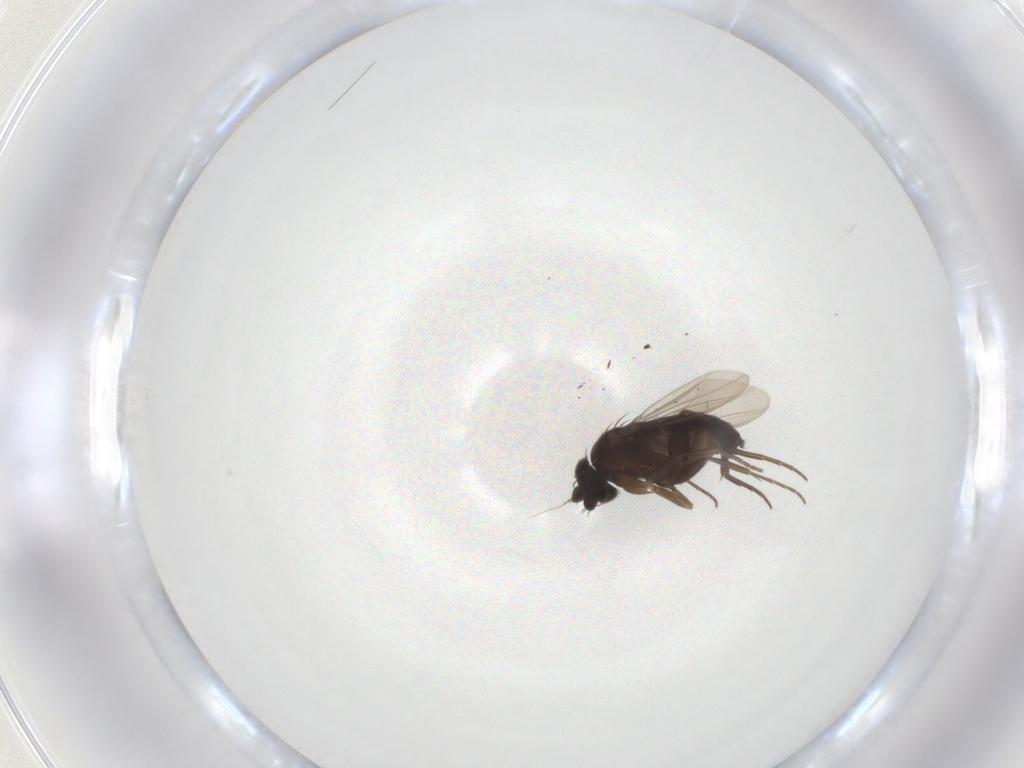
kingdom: Animalia
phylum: Arthropoda
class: Insecta
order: Diptera
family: Phoridae
